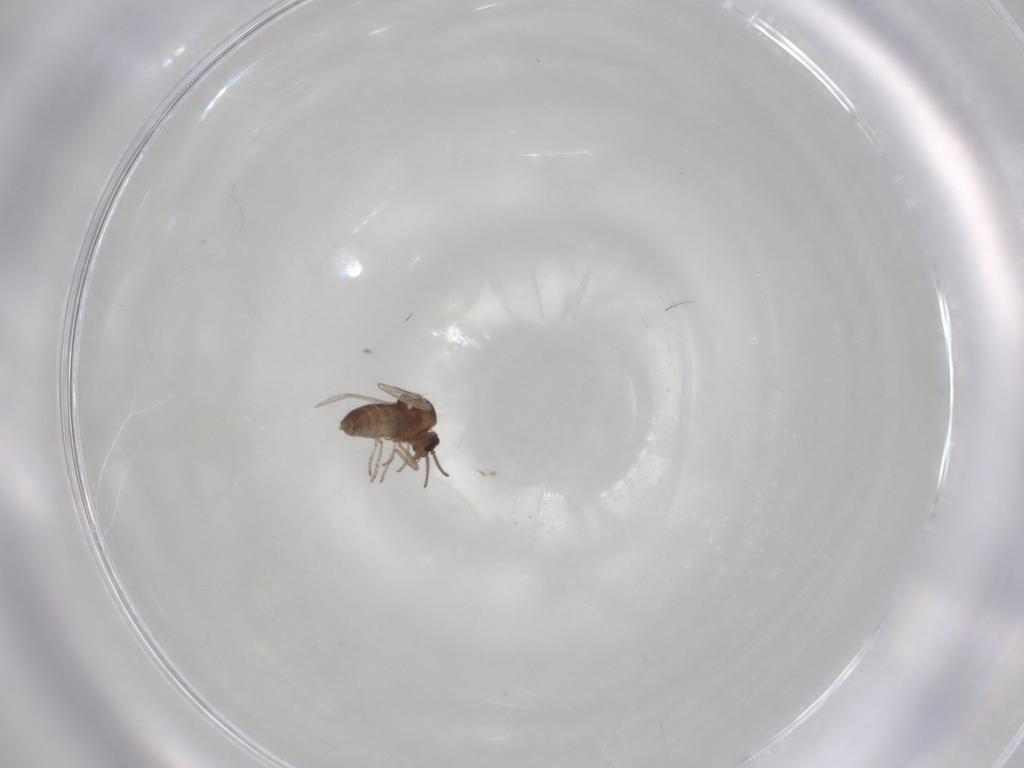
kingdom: Animalia
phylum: Arthropoda
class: Insecta
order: Diptera
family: Ceratopogonidae
